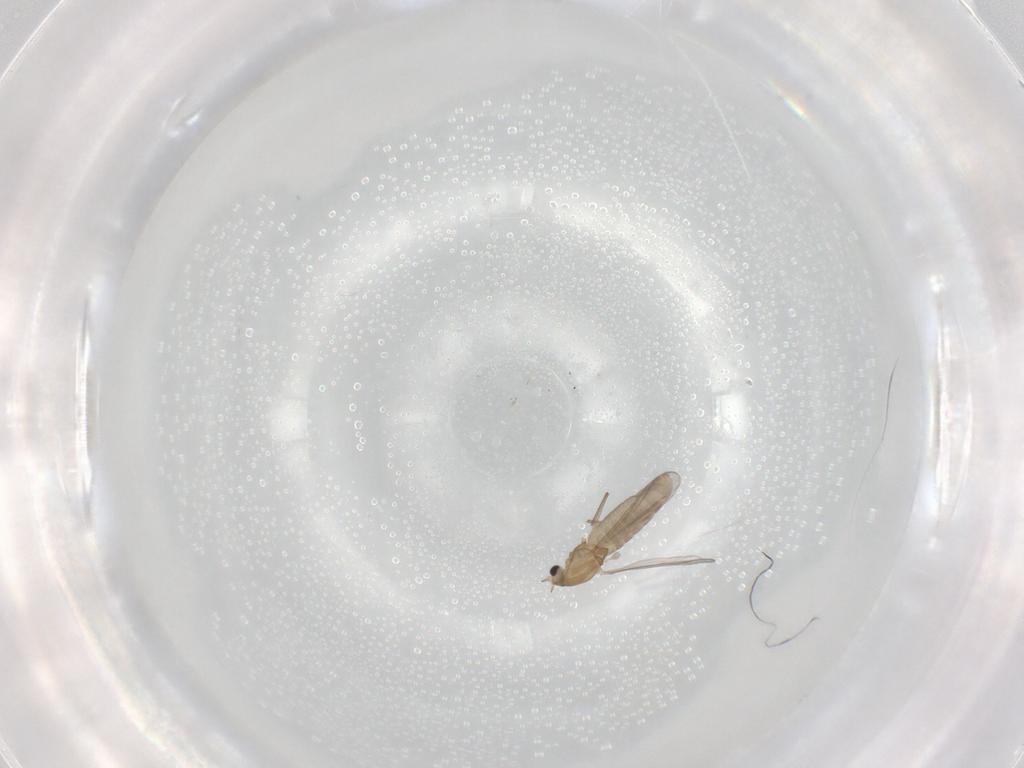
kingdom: Animalia
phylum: Arthropoda
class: Insecta
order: Diptera
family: Chironomidae
